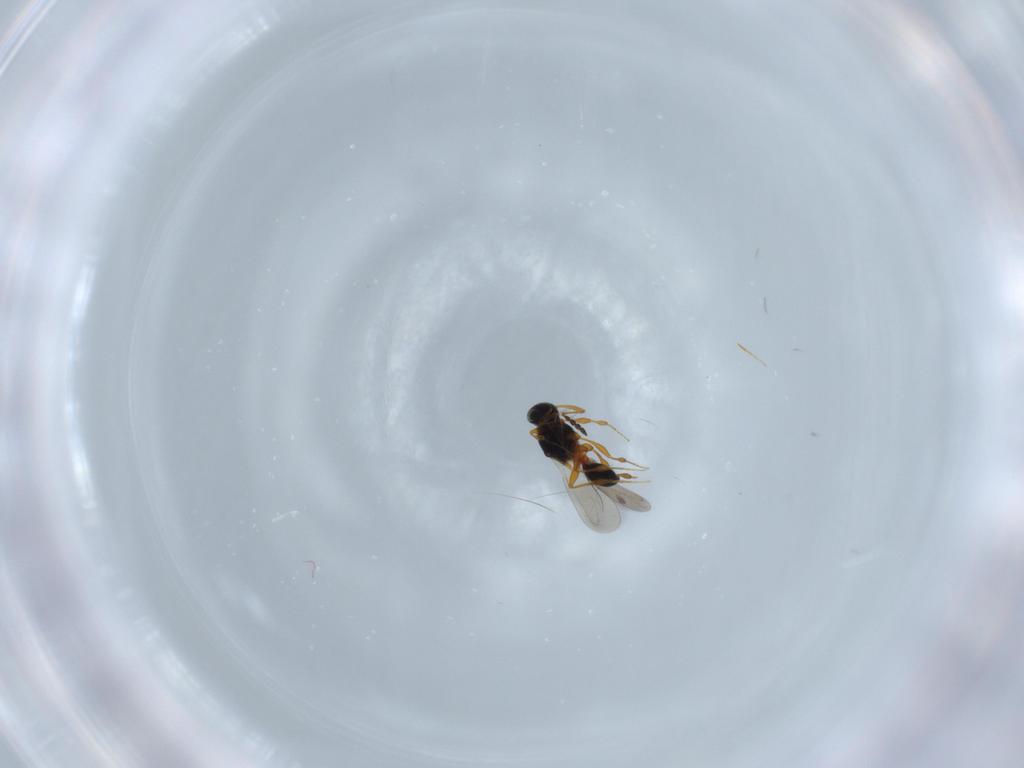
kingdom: Animalia
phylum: Arthropoda
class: Insecta
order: Hymenoptera
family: Platygastridae
